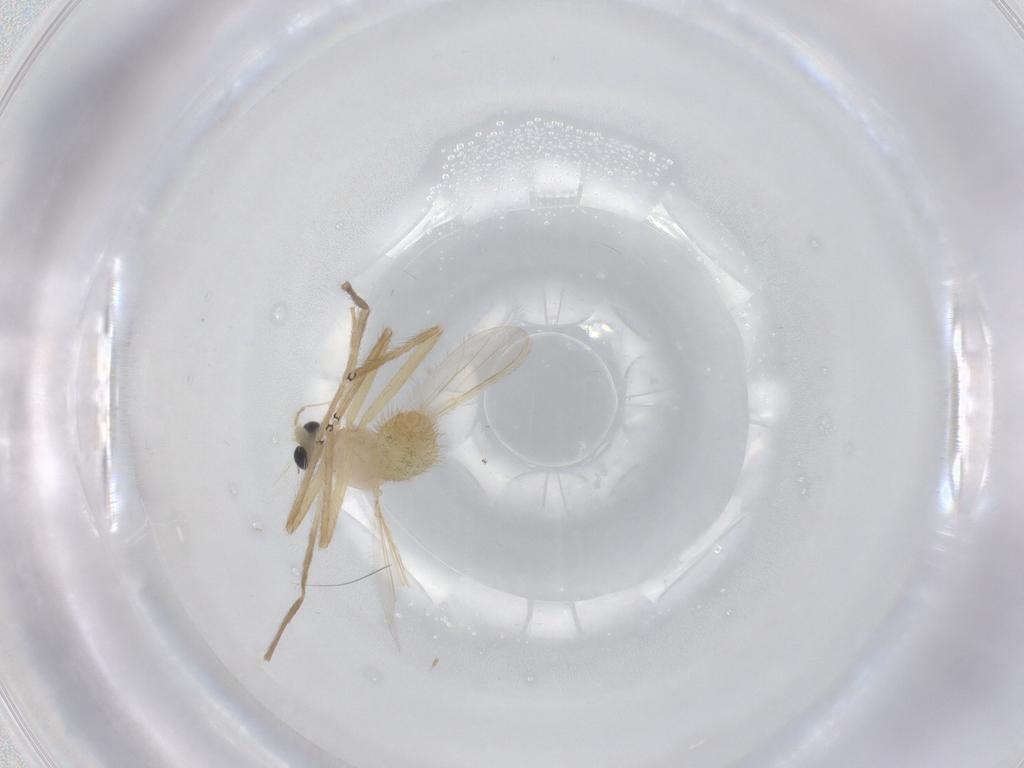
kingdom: Animalia
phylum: Arthropoda
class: Insecta
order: Diptera
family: Chironomidae
